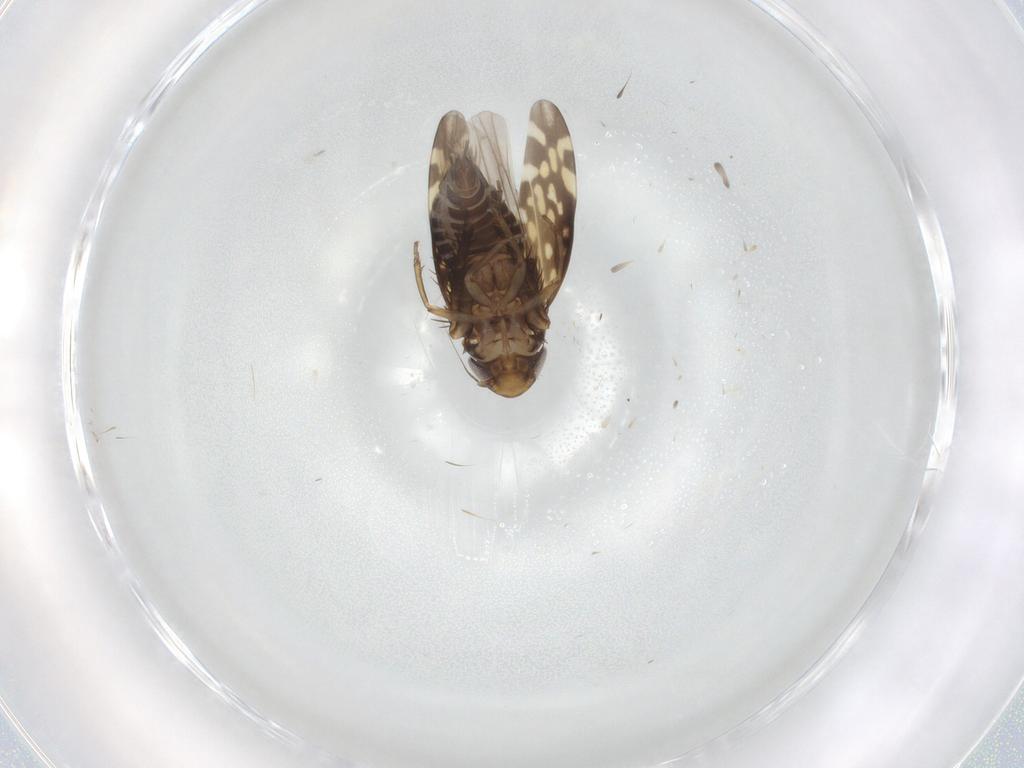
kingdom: Animalia
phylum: Arthropoda
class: Insecta
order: Hemiptera
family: Cicadellidae
